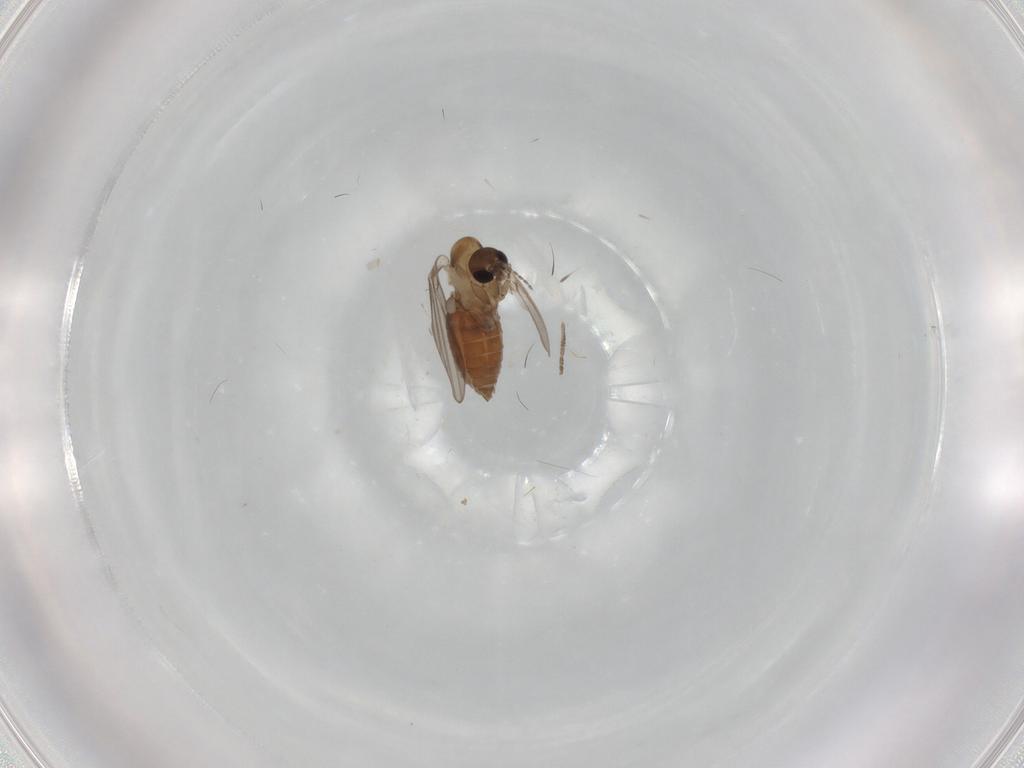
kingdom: Animalia
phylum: Arthropoda
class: Insecta
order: Diptera
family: Limoniidae
